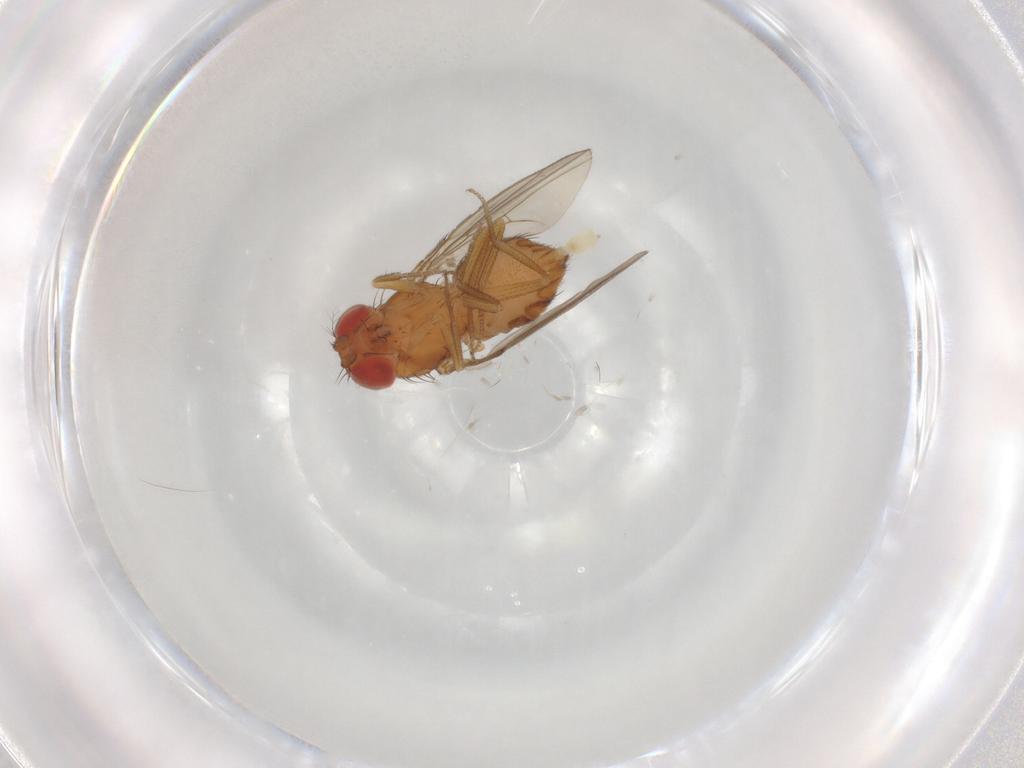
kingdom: Animalia
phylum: Arthropoda
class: Insecta
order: Diptera
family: Drosophilidae
